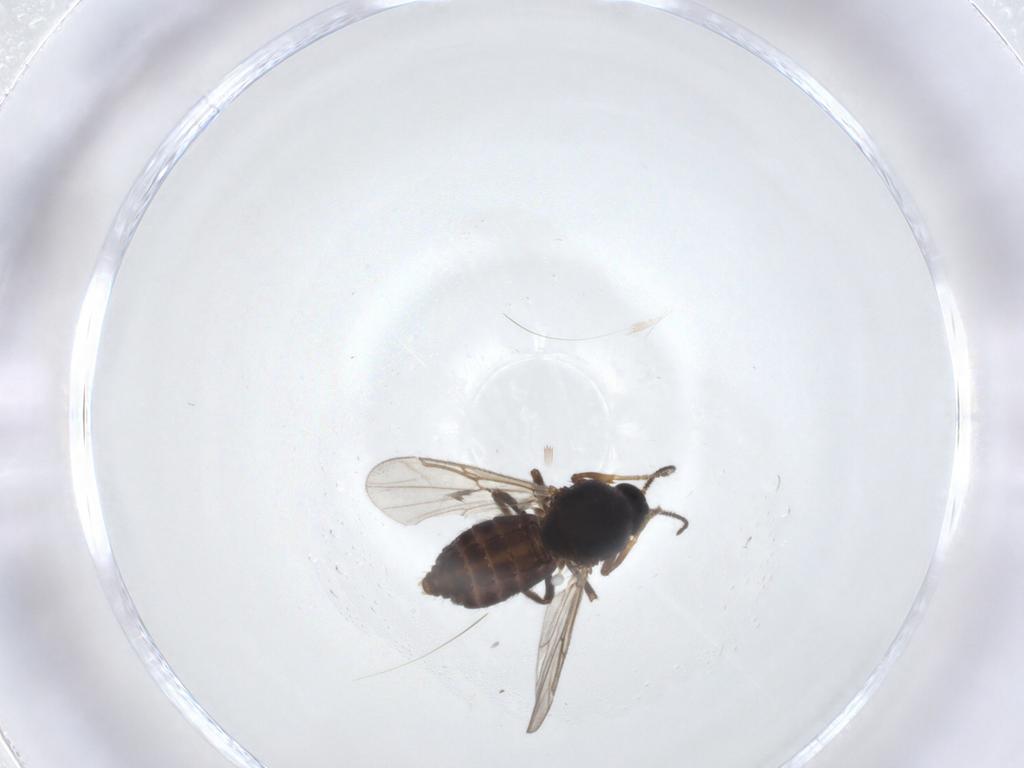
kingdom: Animalia
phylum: Arthropoda
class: Insecta
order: Diptera
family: Ceratopogonidae
